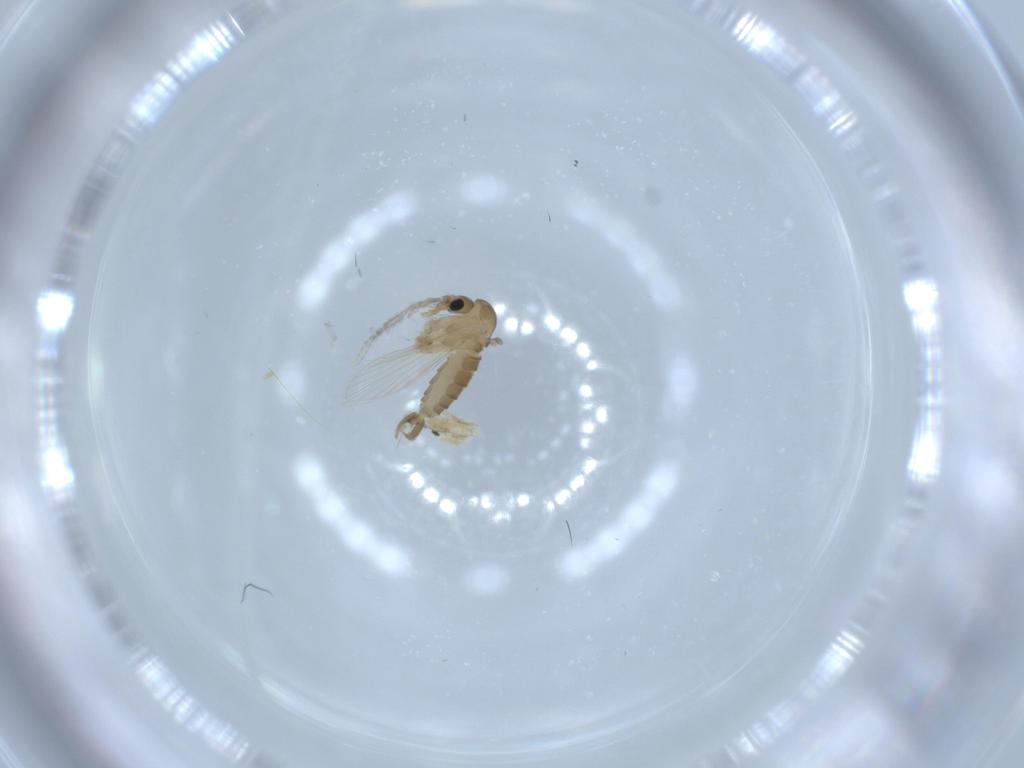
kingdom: Animalia
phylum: Arthropoda
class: Insecta
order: Diptera
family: Psychodidae
